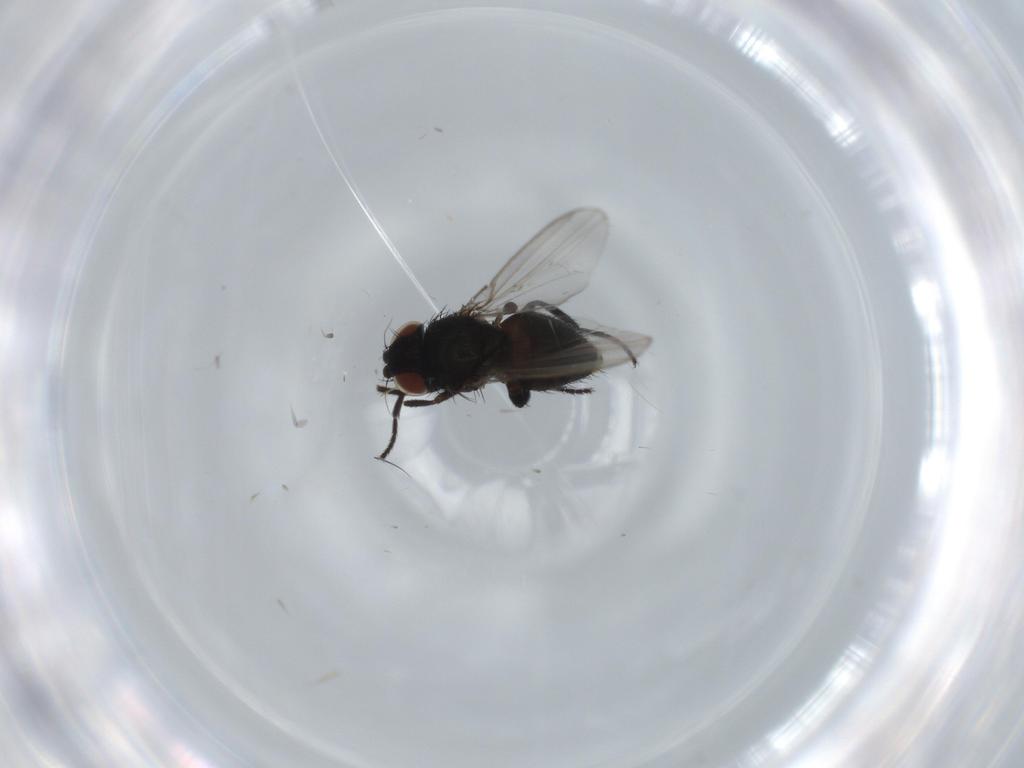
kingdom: Animalia
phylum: Arthropoda
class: Insecta
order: Diptera
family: Milichiidae
